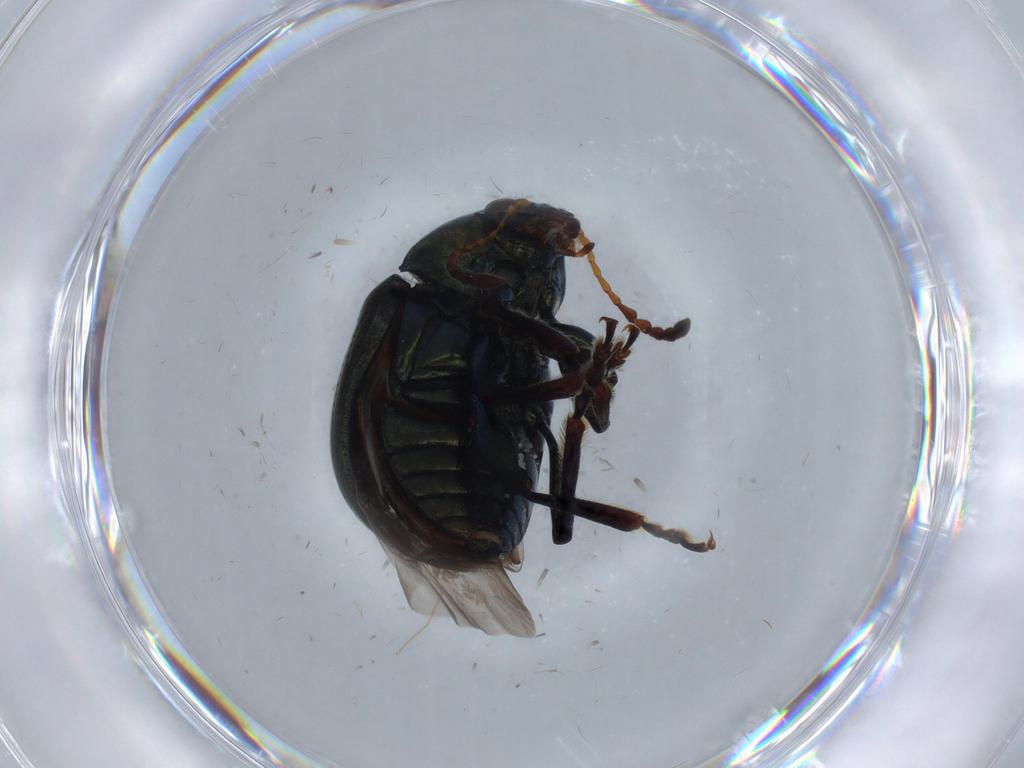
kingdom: Animalia
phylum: Arthropoda
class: Insecta
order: Coleoptera
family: Chrysomelidae
